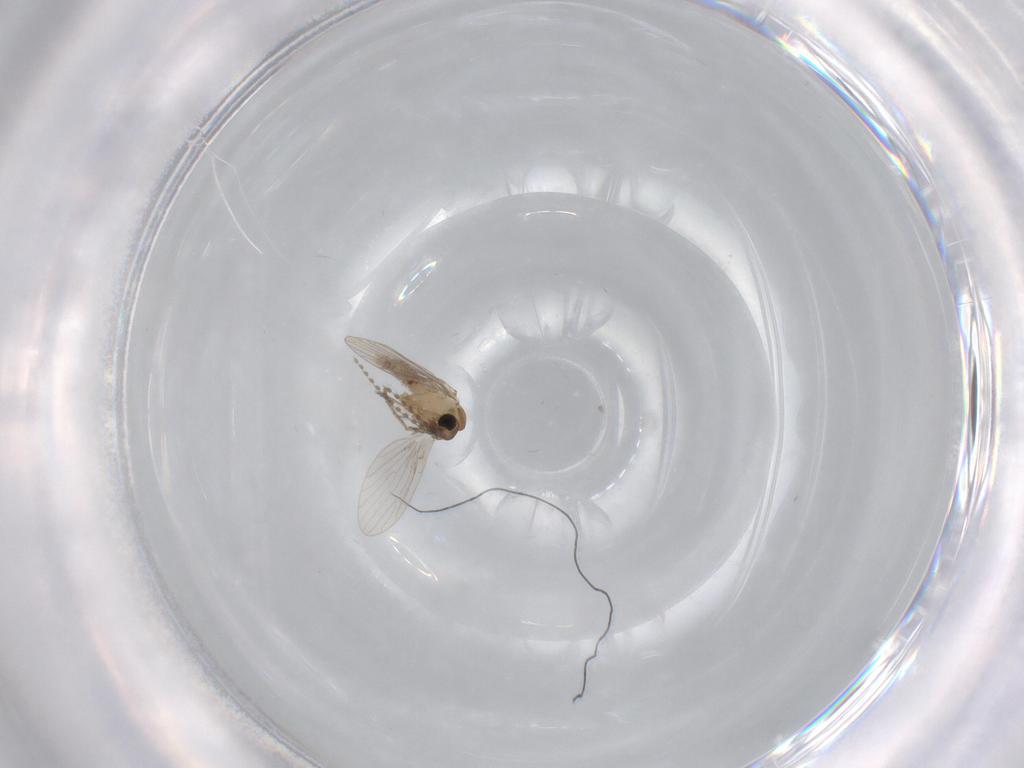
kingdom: Animalia
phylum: Arthropoda
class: Insecta
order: Diptera
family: Psychodidae
